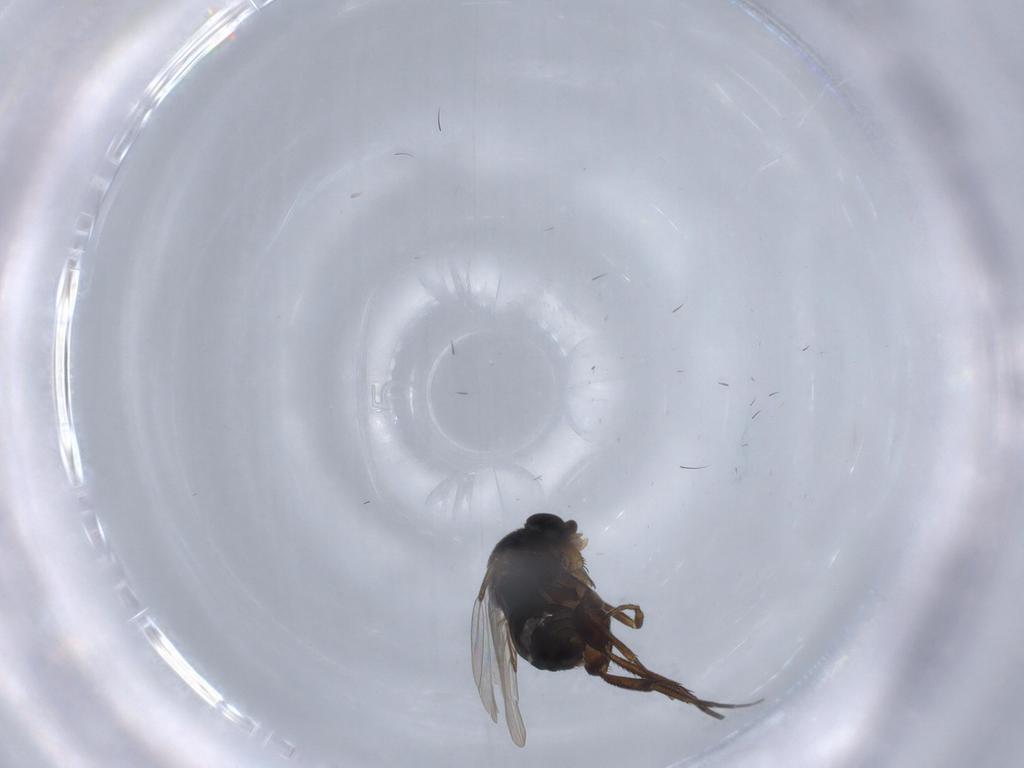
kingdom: Animalia
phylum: Arthropoda
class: Insecta
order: Diptera
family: Phoridae
